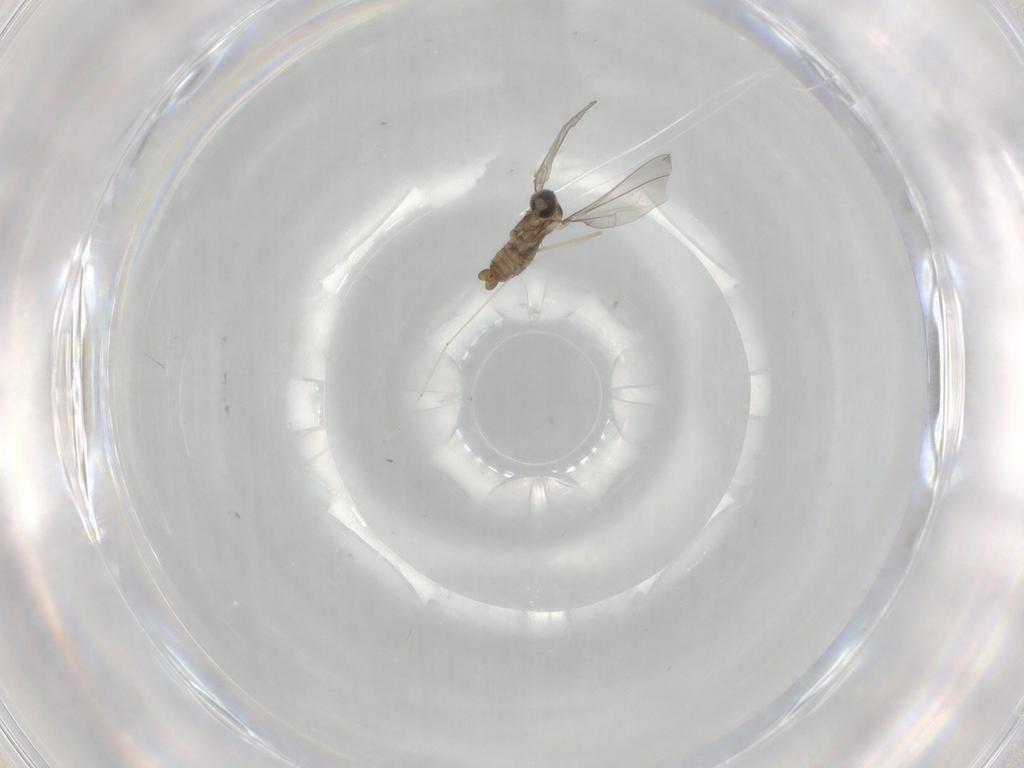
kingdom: Animalia
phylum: Arthropoda
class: Insecta
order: Diptera
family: Cecidomyiidae
